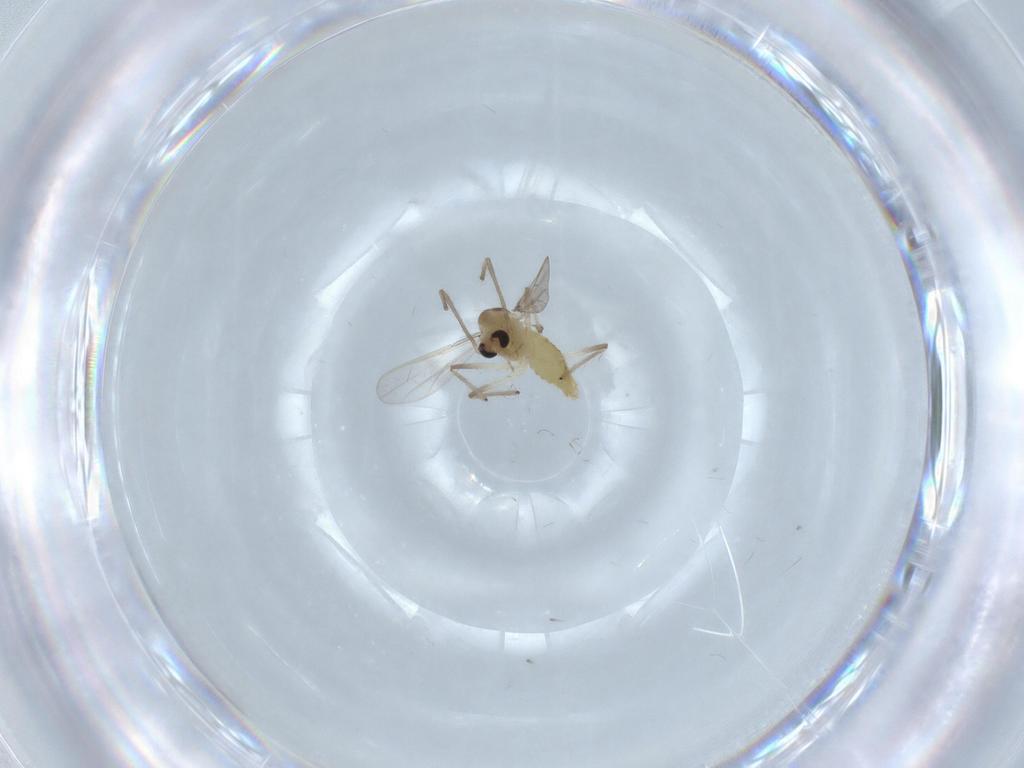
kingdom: Animalia
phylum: Arthropoda
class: Insecta
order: Diptera
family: Chironomidae
